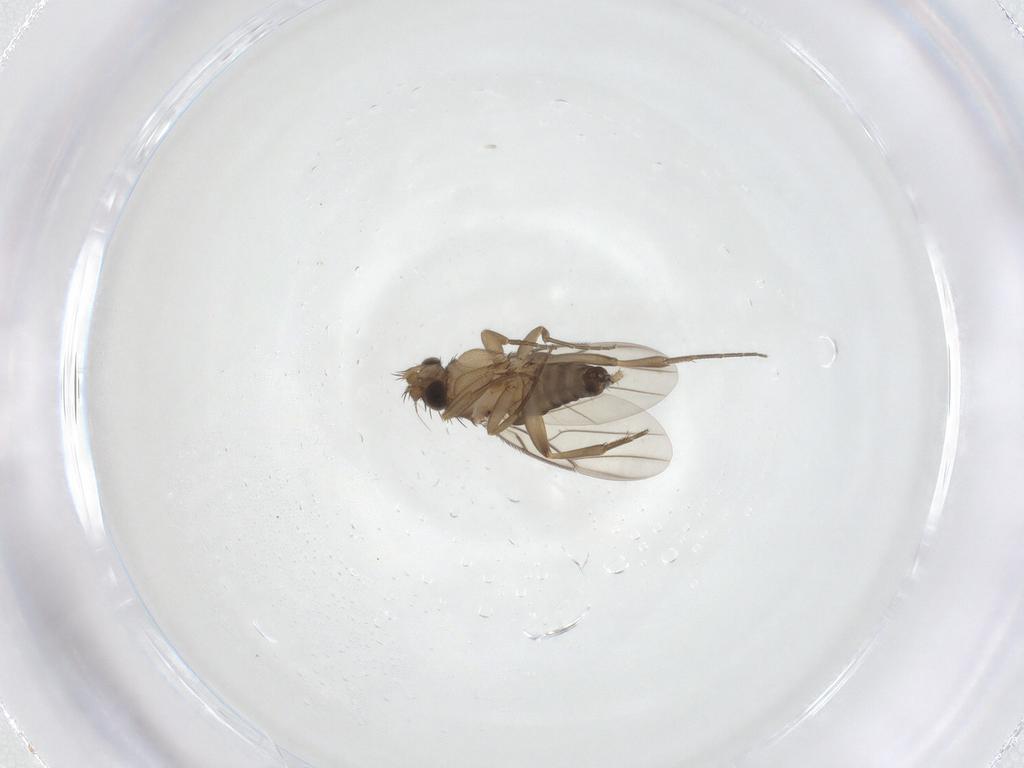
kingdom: Animalia
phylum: Arthropoda
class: Insecta
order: Diptera
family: Phoridae
